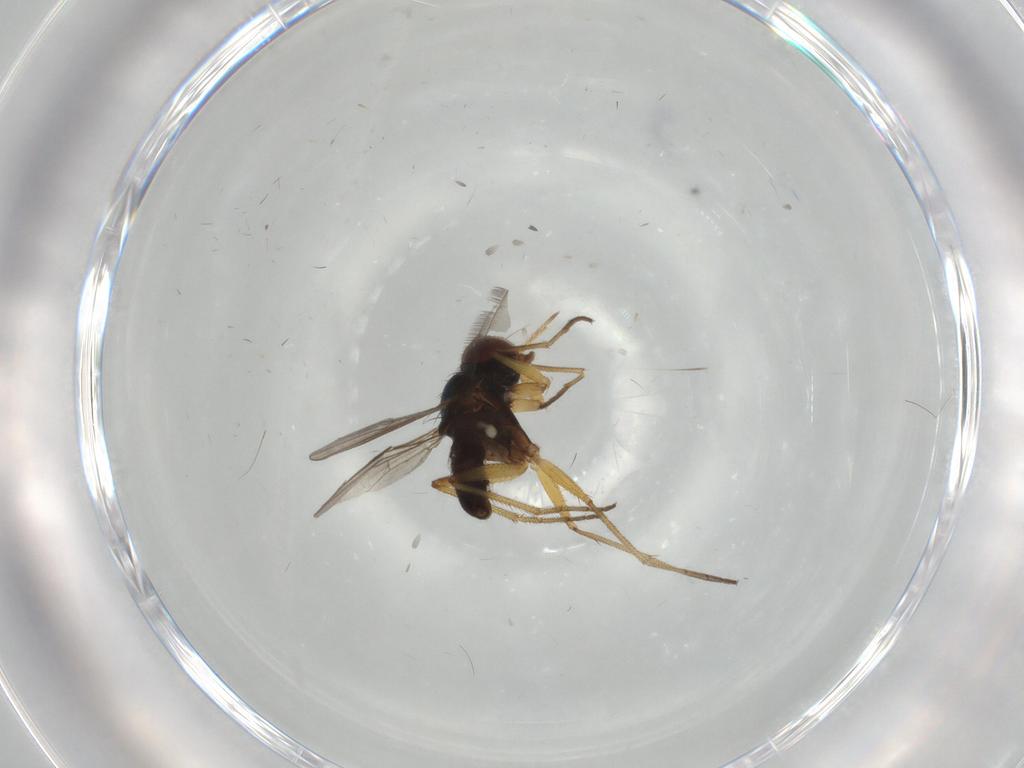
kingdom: Animalia
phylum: Arthropoda
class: Insecta
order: Diptera
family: Dolichopodidae
